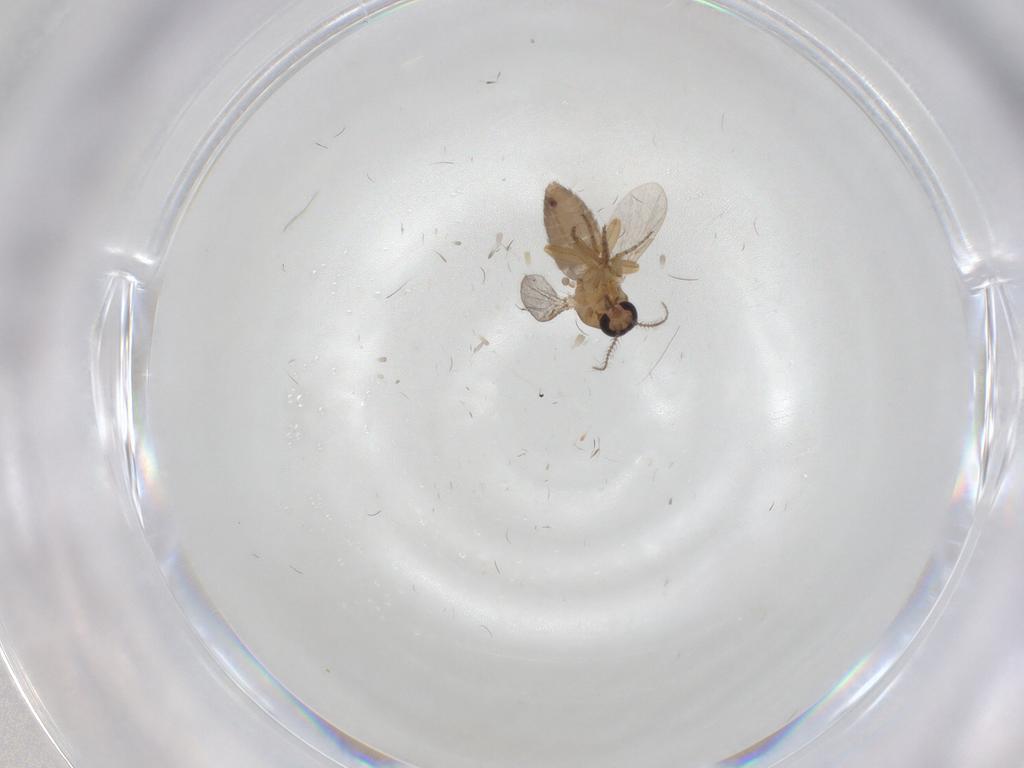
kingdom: Animalia
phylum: Arthropoda
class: Insecta
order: Diptera
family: Ceratopogonidae
